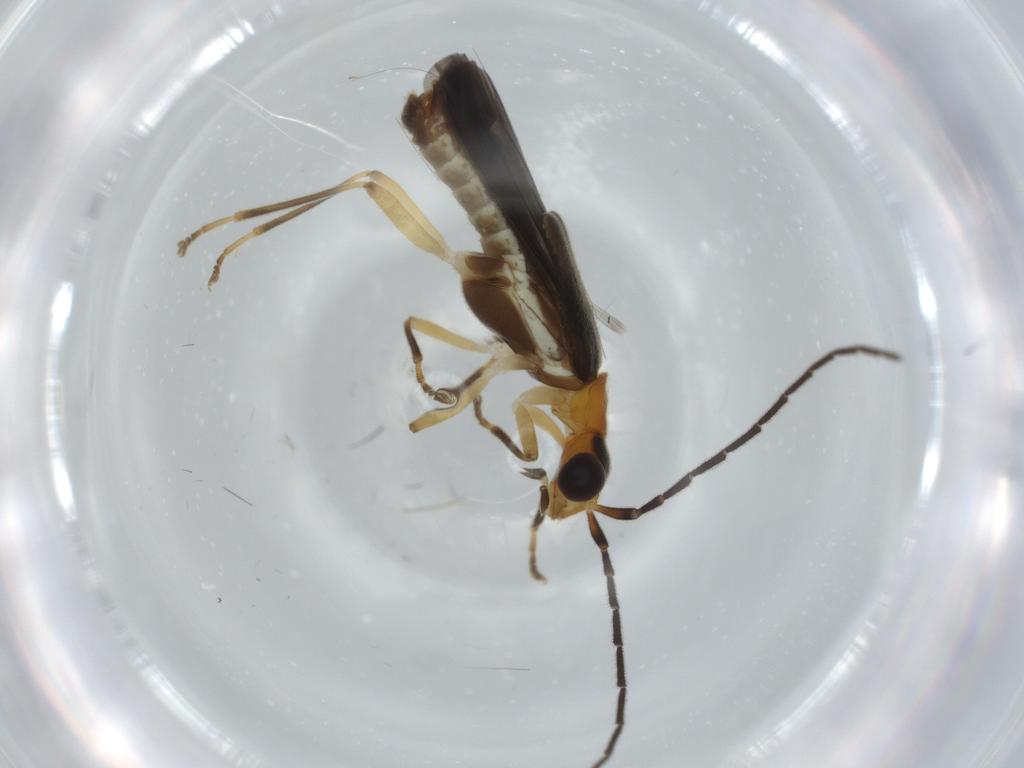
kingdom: Animalia
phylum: Arthropoda
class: Insecta
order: Coleoptera
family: Cantharidae
